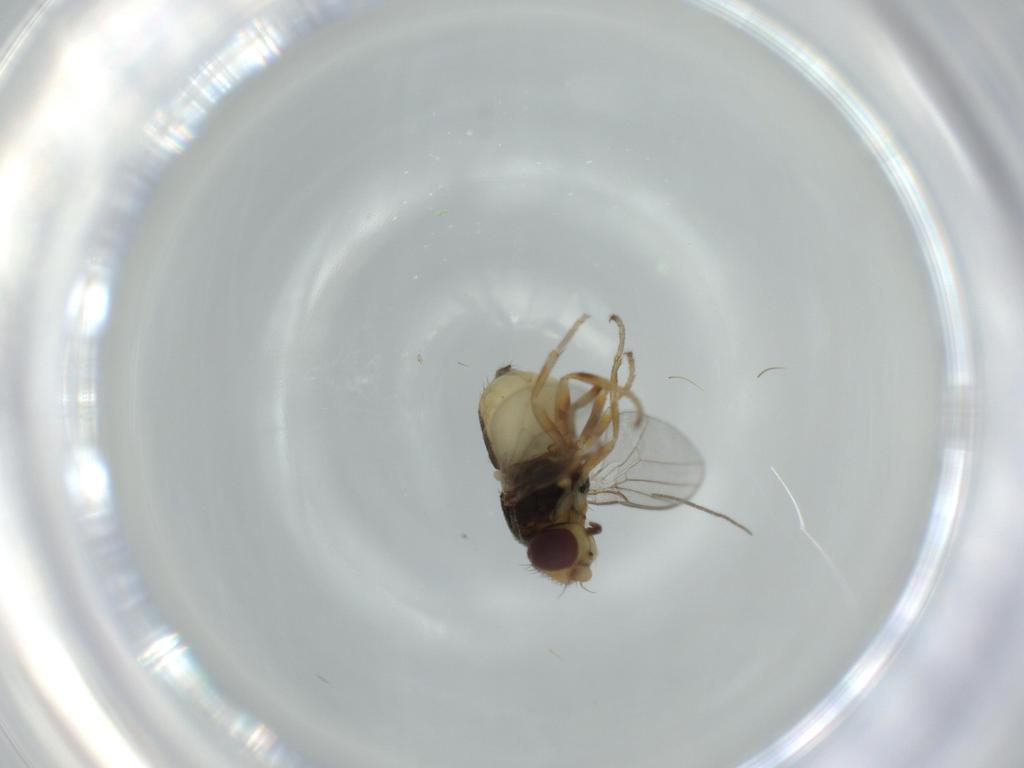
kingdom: Animalia
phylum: Arthropoda
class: Insecta
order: Diptera
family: Chloropidae
